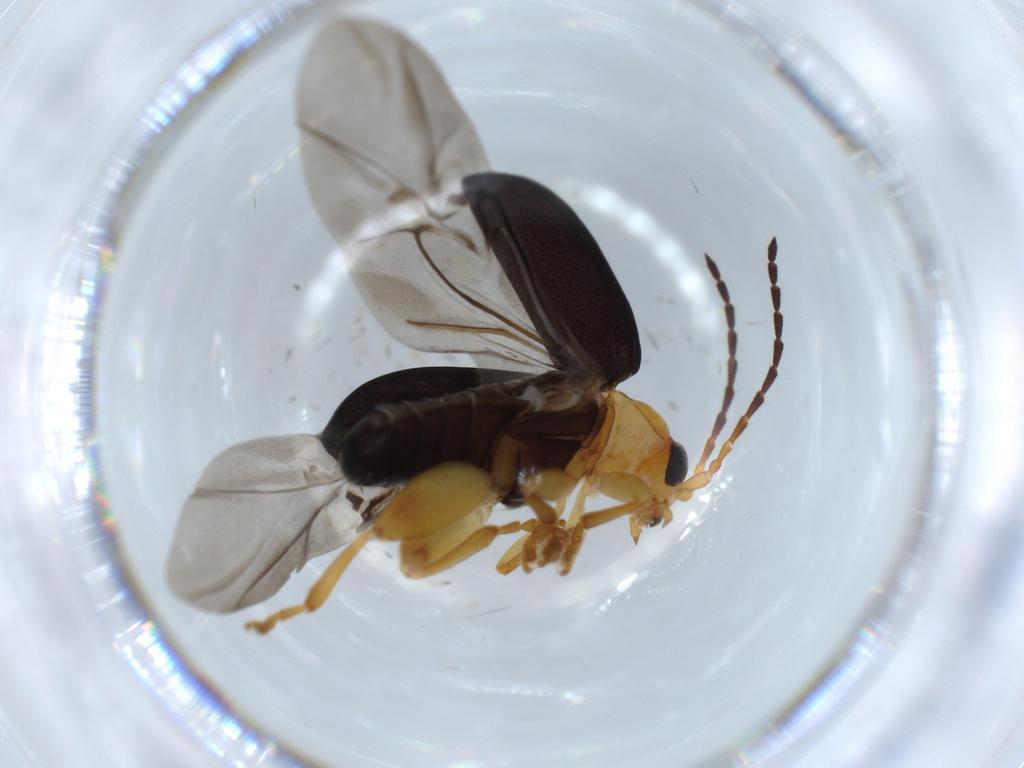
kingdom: Animalia
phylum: Arthropoda
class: Insecta
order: Coleoptera
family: Chrysomelidae
